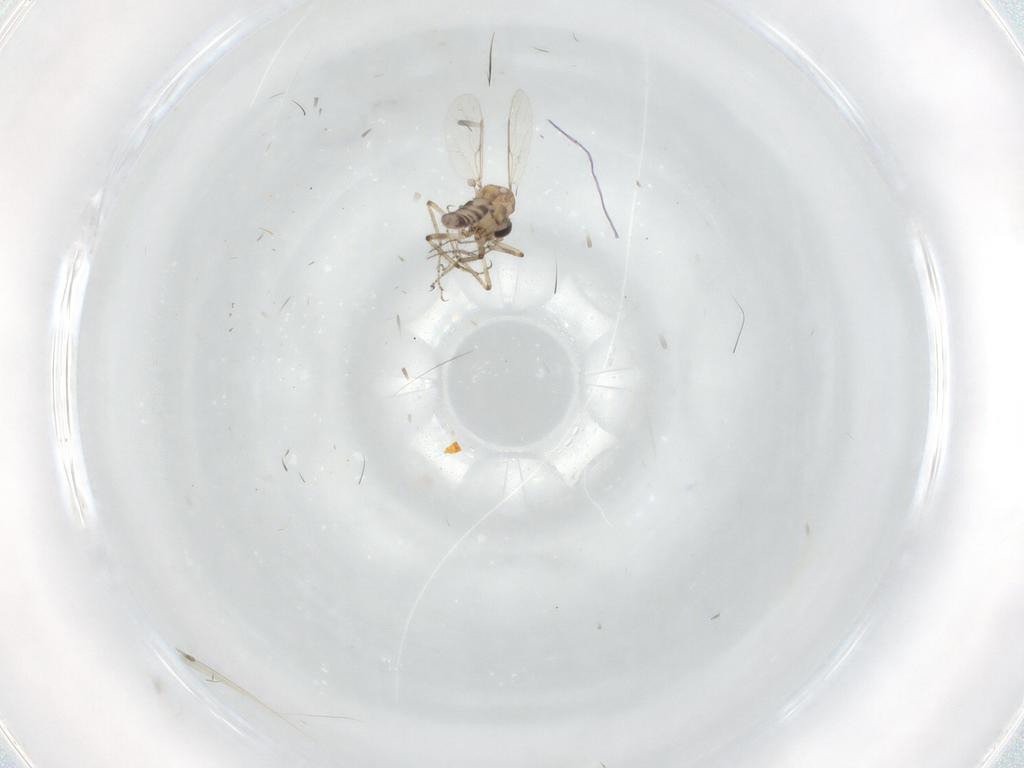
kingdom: Animalia
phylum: Arthropoda
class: Insecta
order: Diptera
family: Ceratopogonidae
